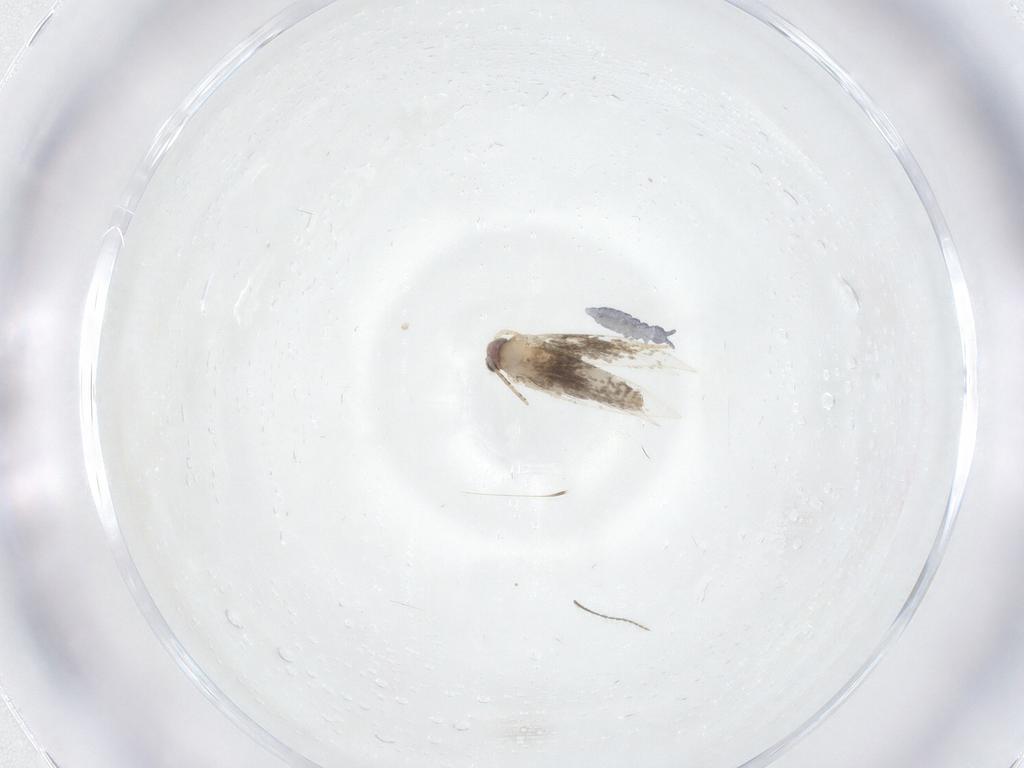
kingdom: Animalia
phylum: Arthropoda
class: Collembola
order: Poduromorpha
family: Hypogastruridae
